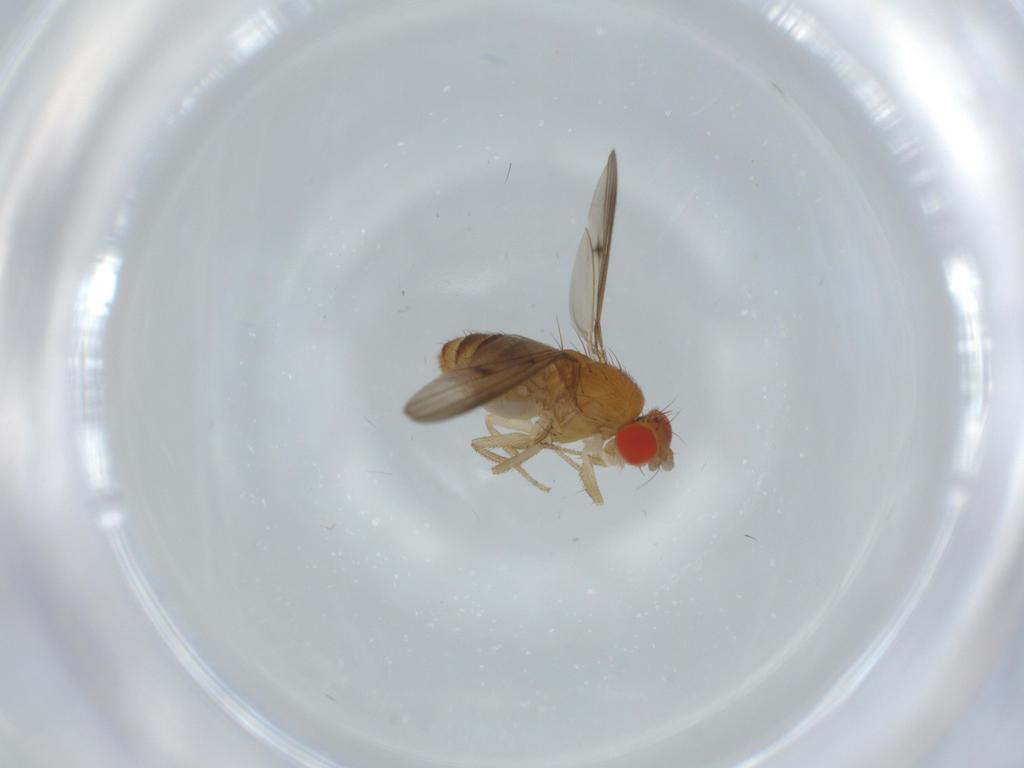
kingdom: Animalia
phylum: Arthropoda
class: Insecta
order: Diptera
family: Drosophilidae
